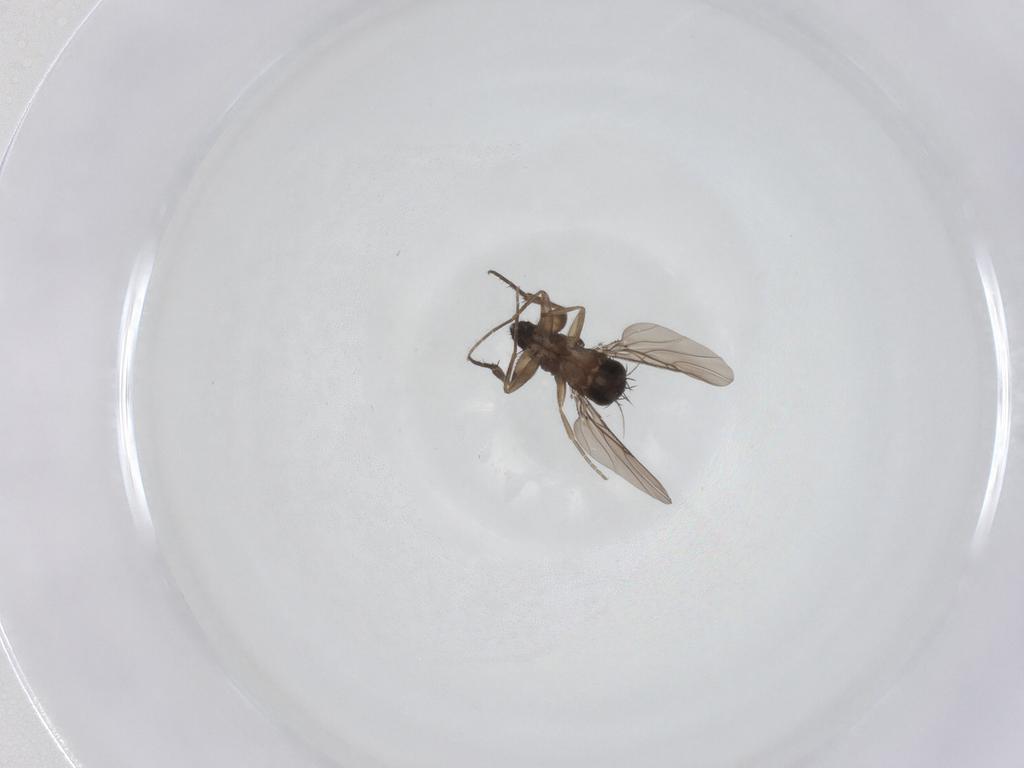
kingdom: Animalia
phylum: Arthropoda
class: Insecta
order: Diptera
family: Phoridae
